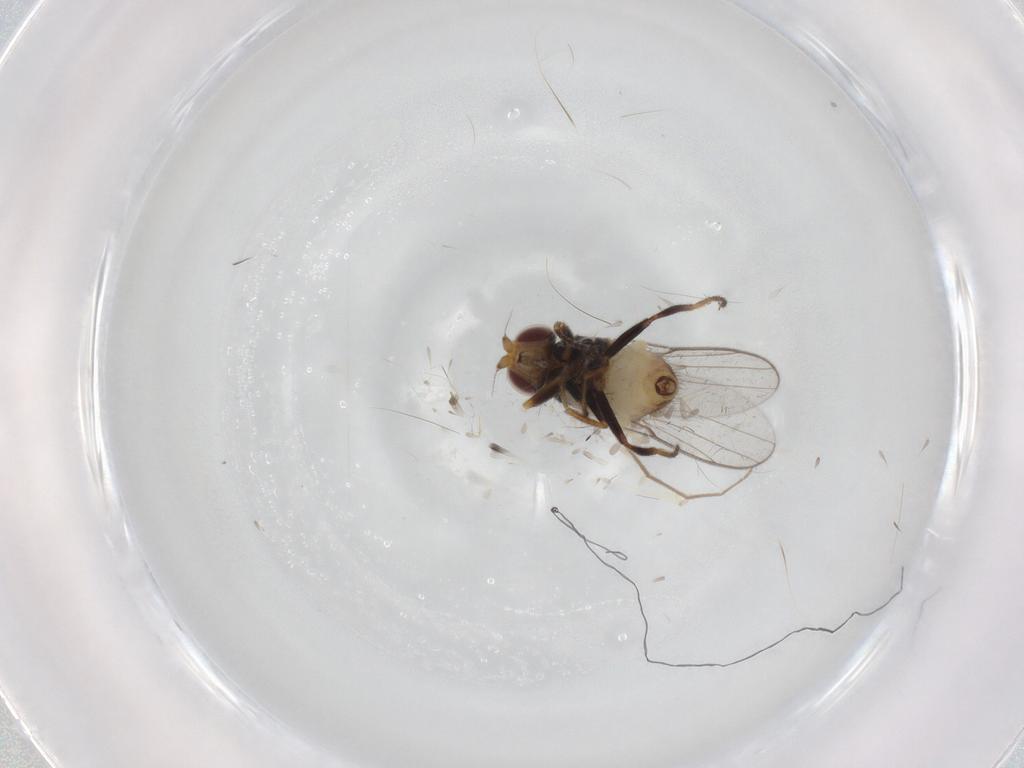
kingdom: Animalia
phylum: Arthropoda
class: Insecta
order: Diptera
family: Chloropidae
